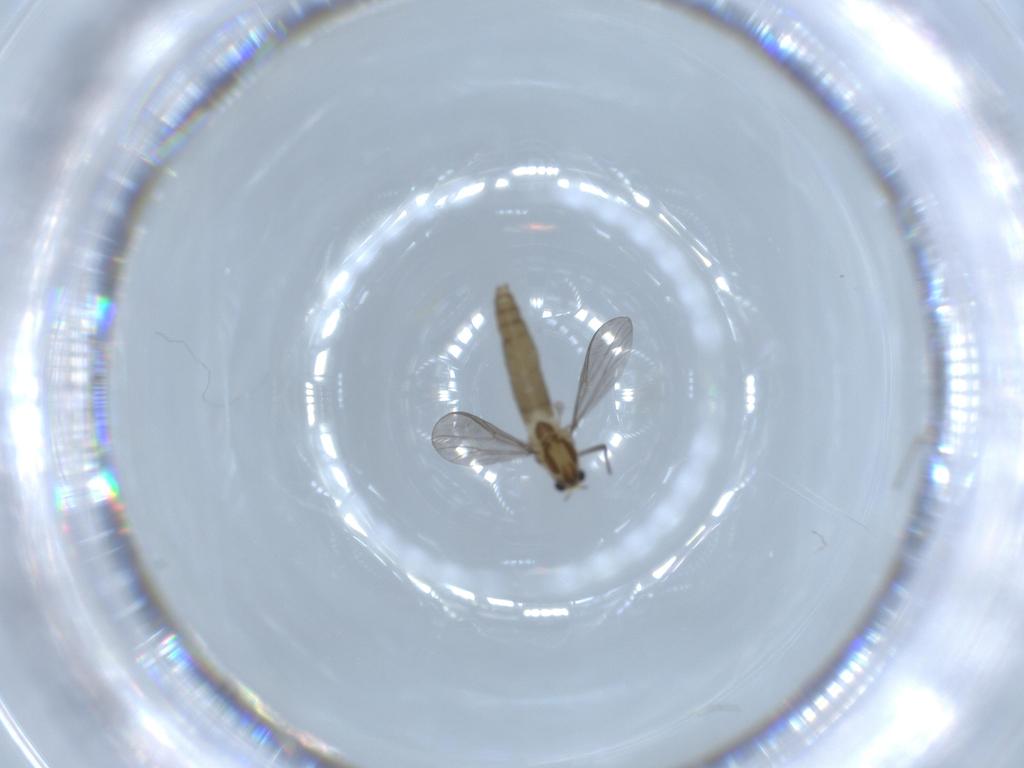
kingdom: Animalia
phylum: Arthropoda
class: Insecta
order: Diptera
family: Chironomidae
